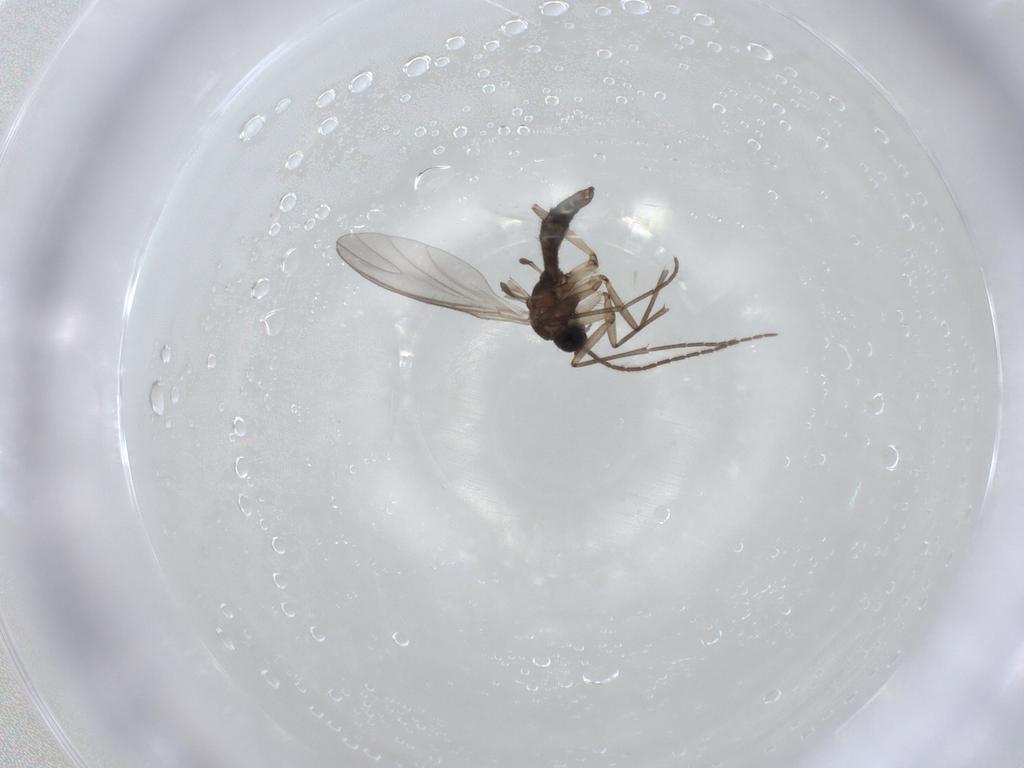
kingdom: Animalia
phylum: Arthropoda
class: Insecta
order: Diptera
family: Sciaridae
